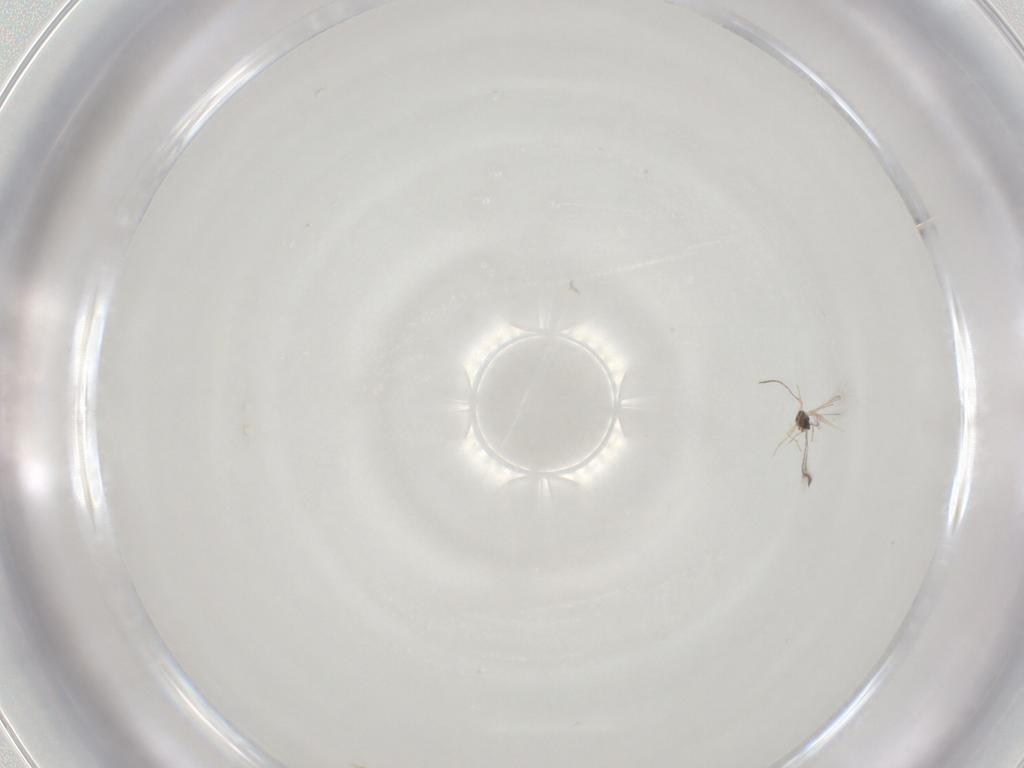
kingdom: Animalia
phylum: Arthropoda
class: Insecta
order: Diptera
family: Chironomidae
